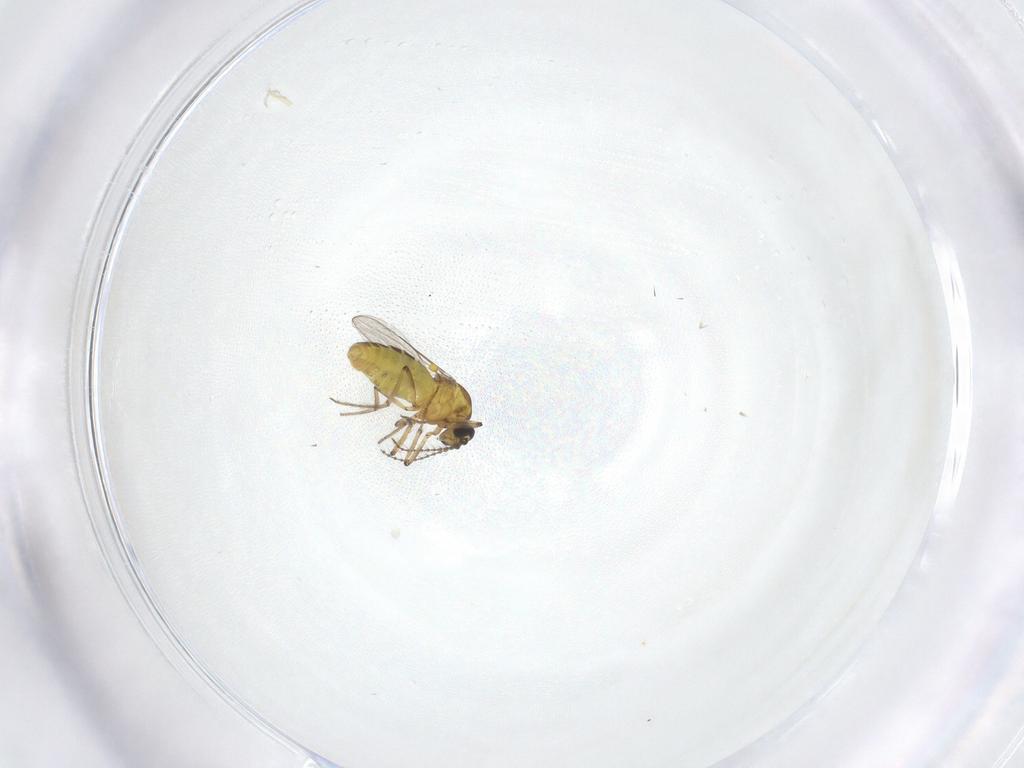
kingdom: Animalia
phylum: Arthropoda
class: Insecta
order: Diptera
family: Ceratopogonidae
